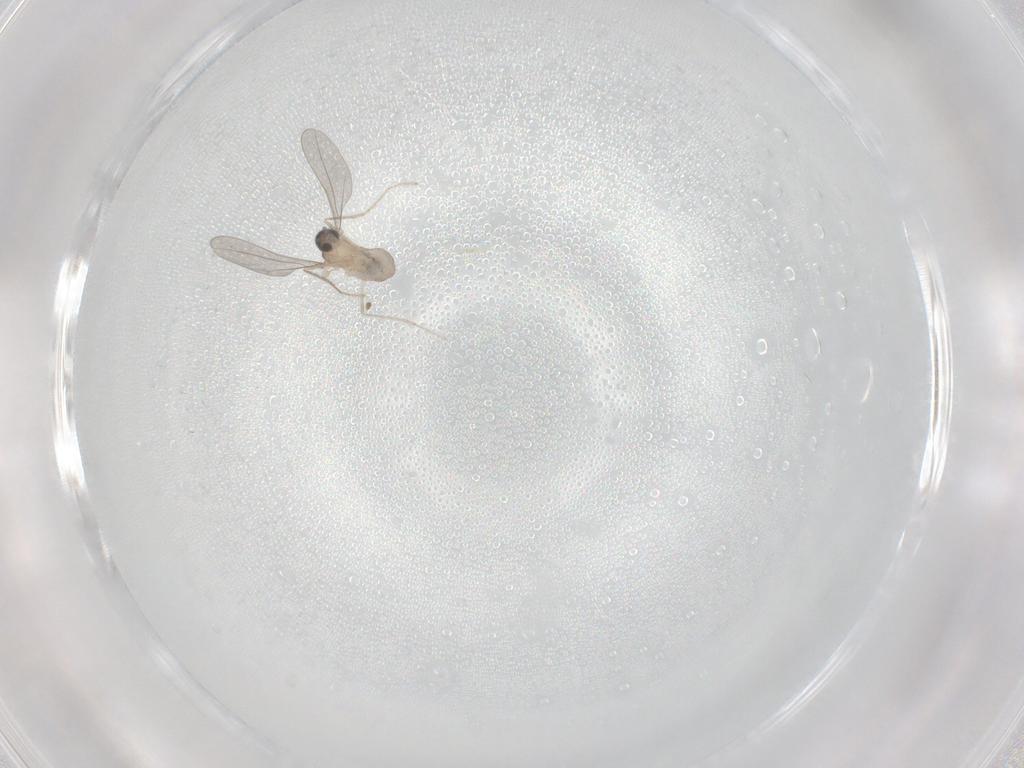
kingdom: Animalia
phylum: Arthropoda
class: Insecta
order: Diptera
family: Cecidomyiidae
